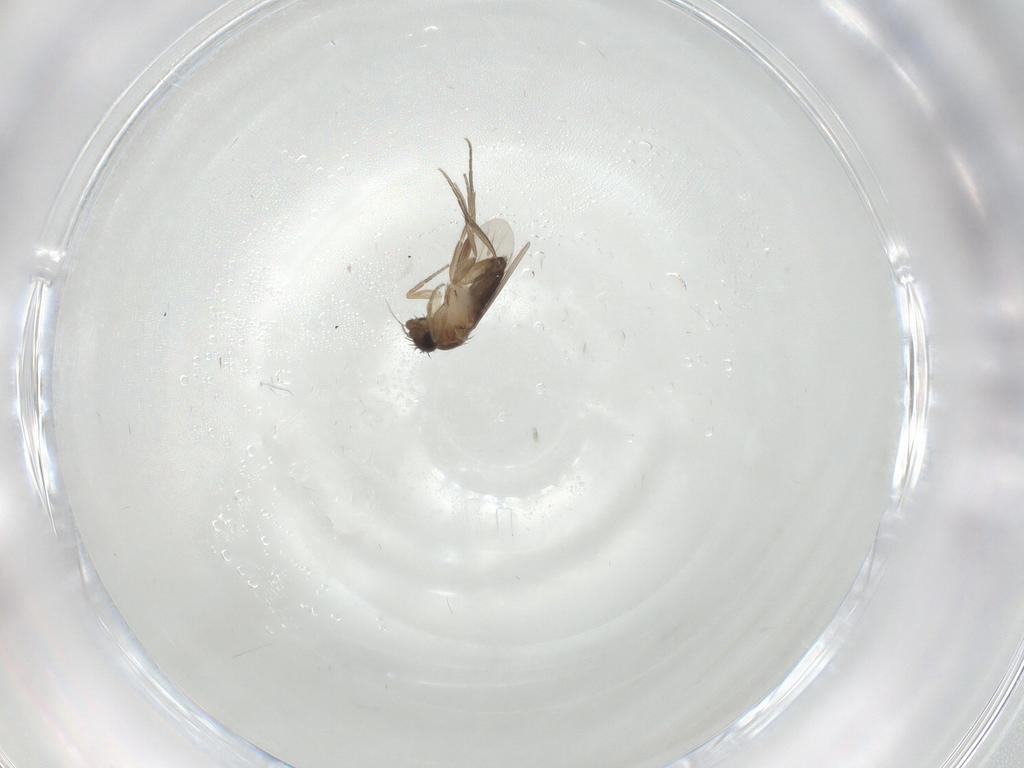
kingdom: Animalia
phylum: Arthropoda
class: Insecta
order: Diptera
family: Phoridae
